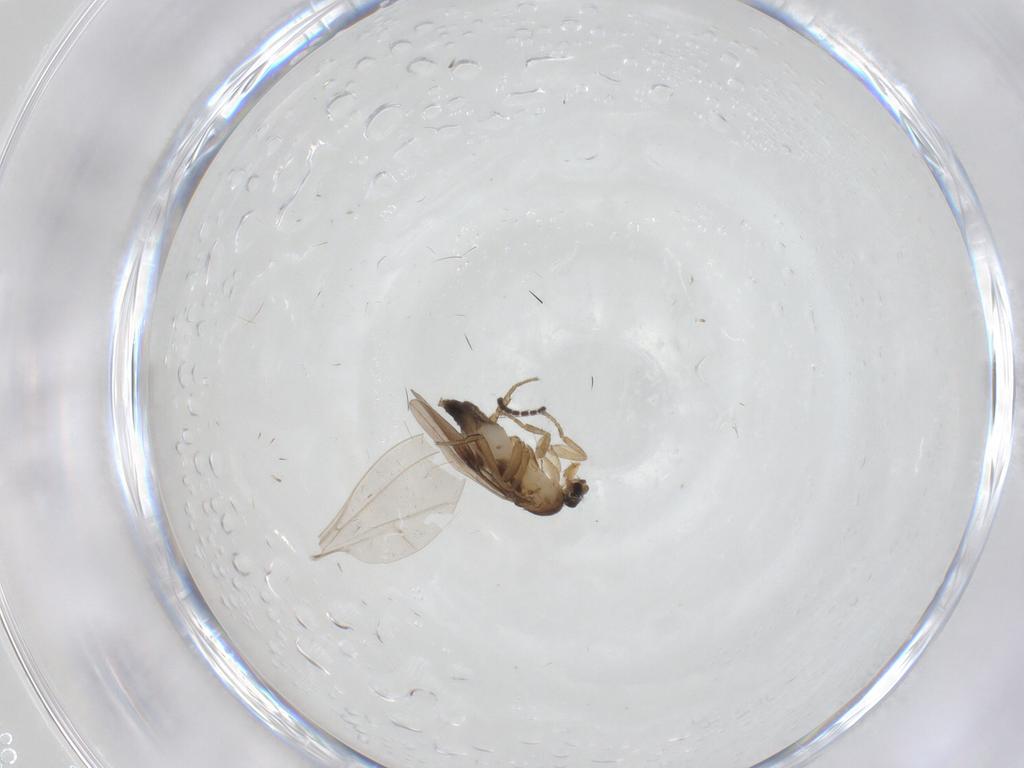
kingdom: Animalia
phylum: Arthropoda
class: Insecta
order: Diptera
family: Sciaridae
